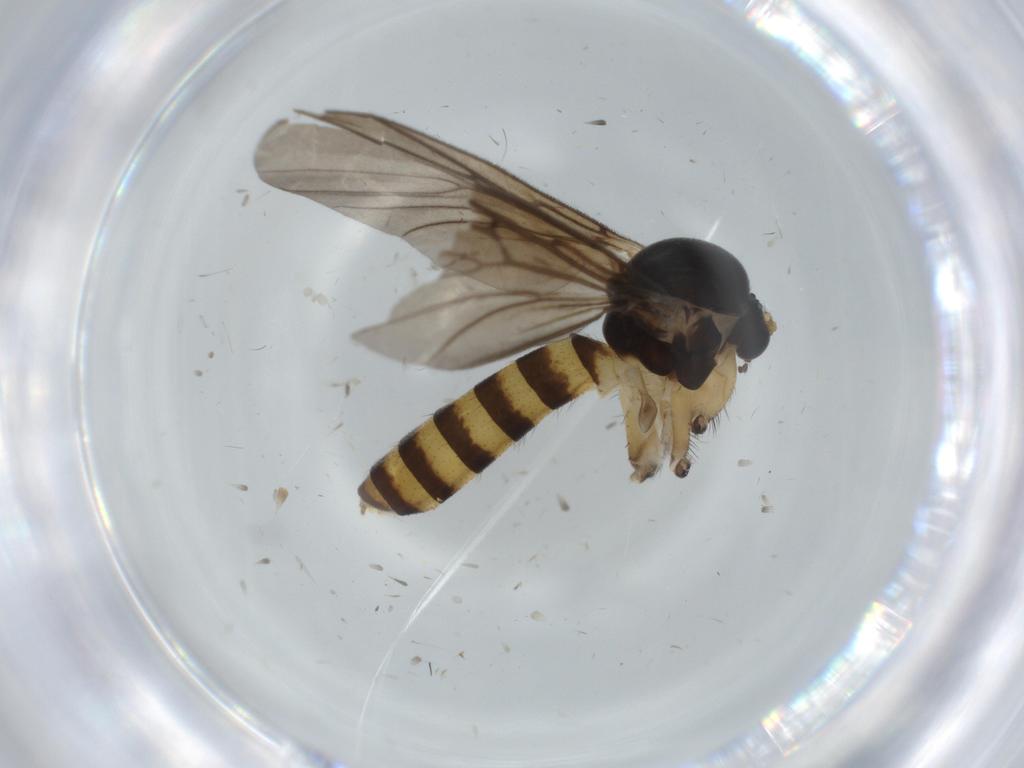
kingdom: Animalia
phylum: Arthropoda
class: Insecta
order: Diptera
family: Cecidomyiidae
